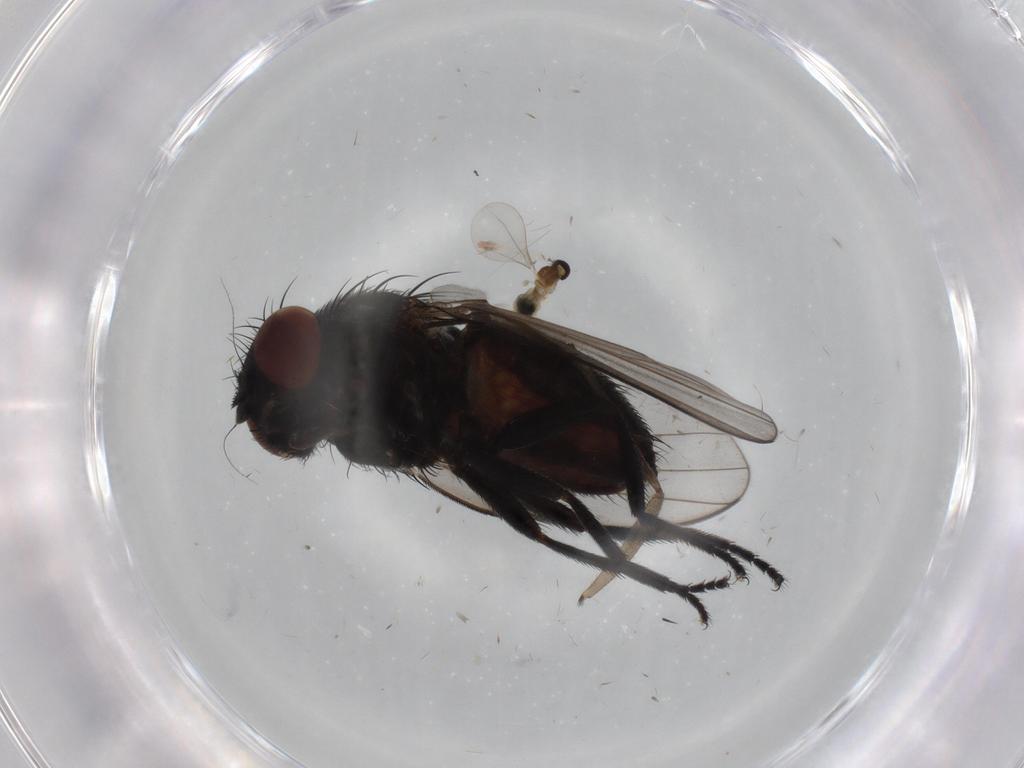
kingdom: Animalia
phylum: Arthropoda
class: Insecta
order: Diptera
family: Milichiidae
